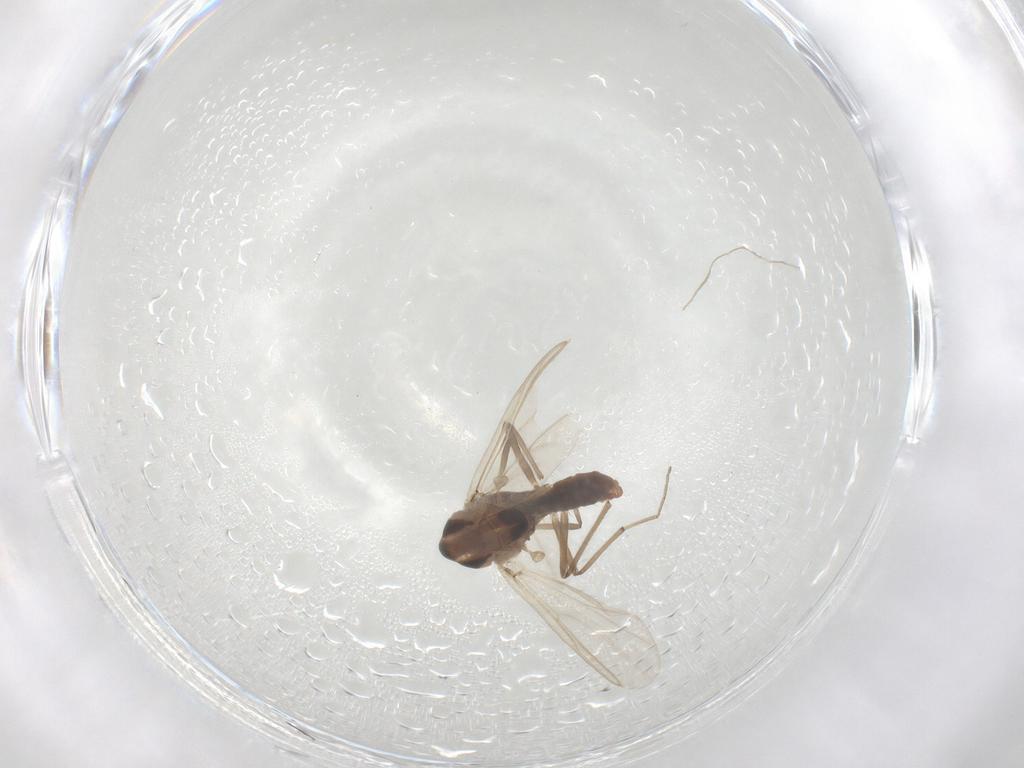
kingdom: Animalia
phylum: Arthropoda
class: Insecta
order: Diptera
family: Chironomidae
